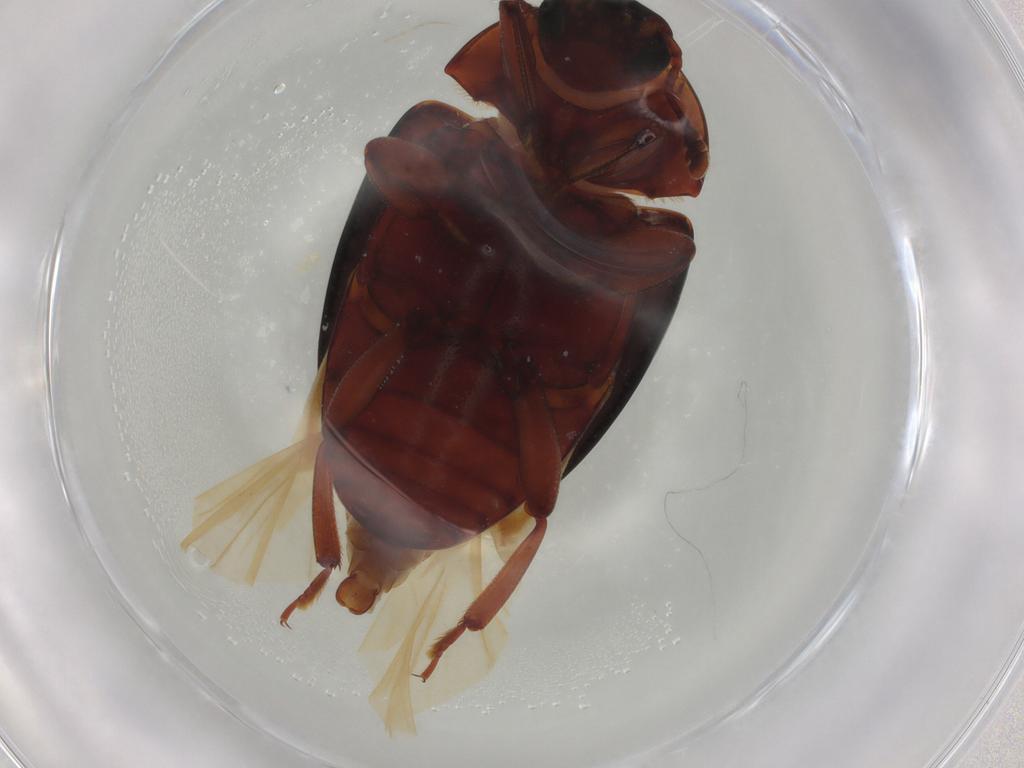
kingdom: Animalia
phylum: Arthropoda
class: Insecta
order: Coleoptera
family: Zopheridae
